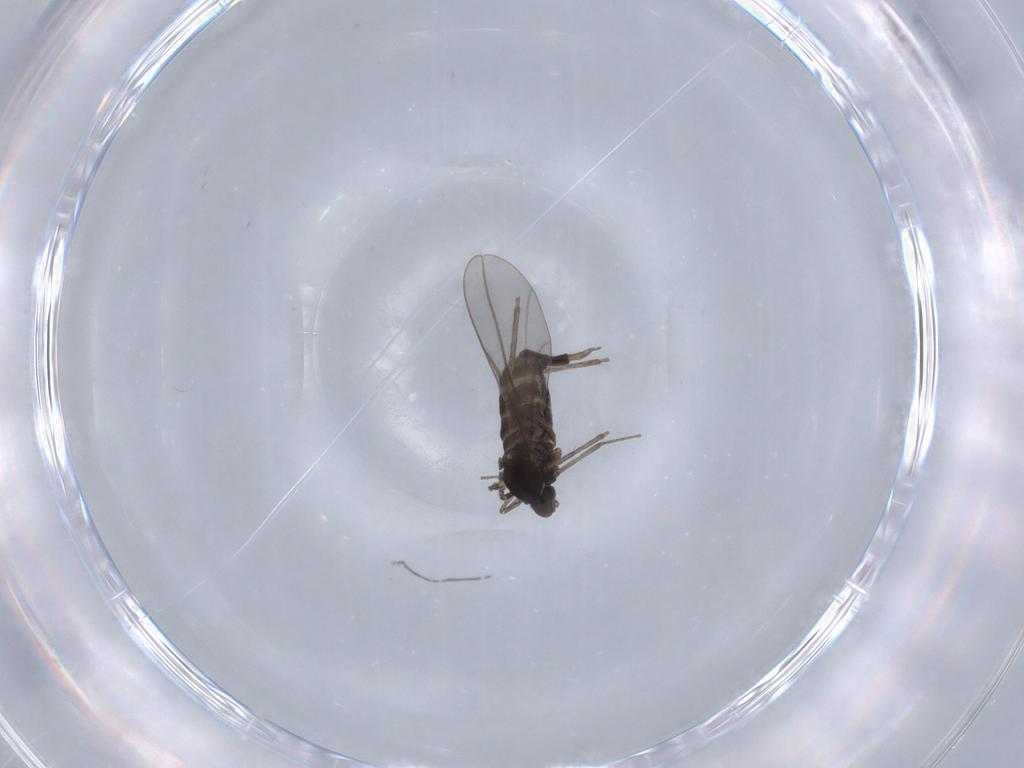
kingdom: Animalia
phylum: Arthropoda
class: Insecta
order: Diptera
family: Cecidomyiidae
